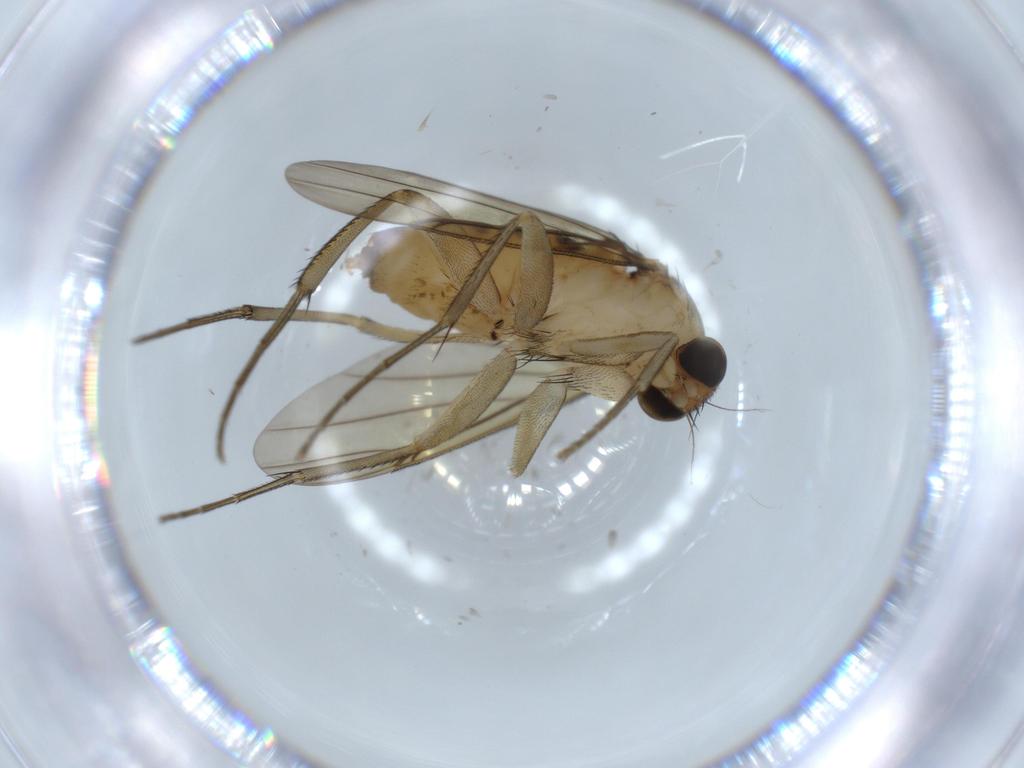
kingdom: Animalia
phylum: Arthropoda
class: Insecta
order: Diptera
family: Phoridae
